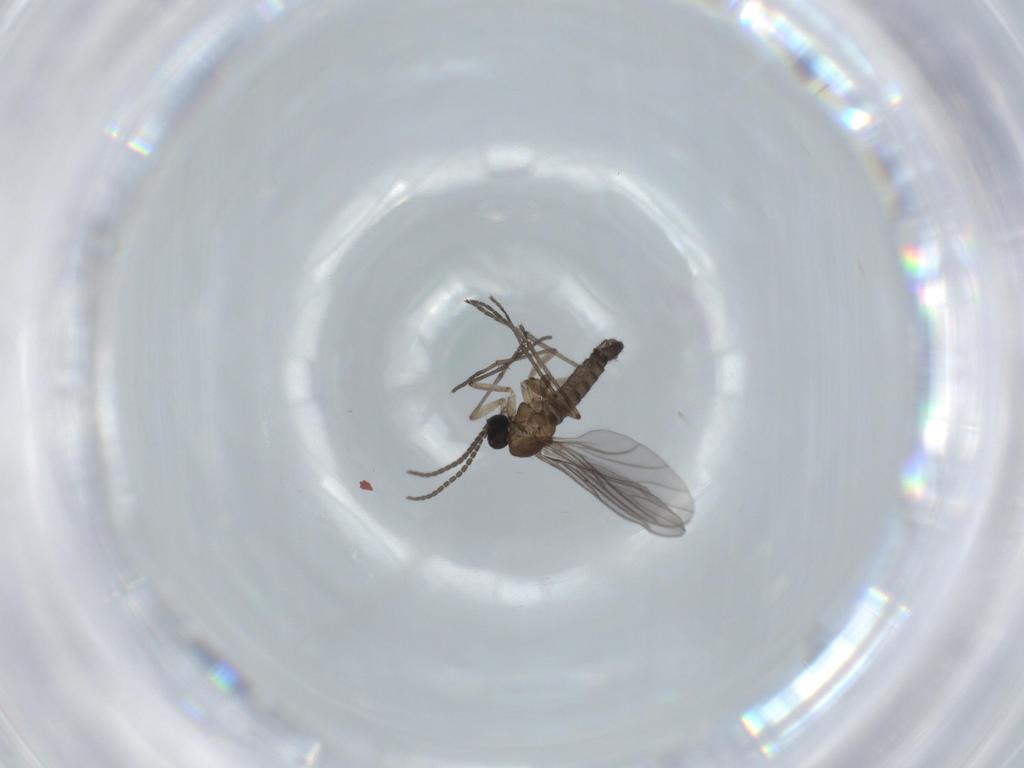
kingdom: Animalia
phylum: Arthropoda
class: Insecta
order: Diptera
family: Sciaridae
